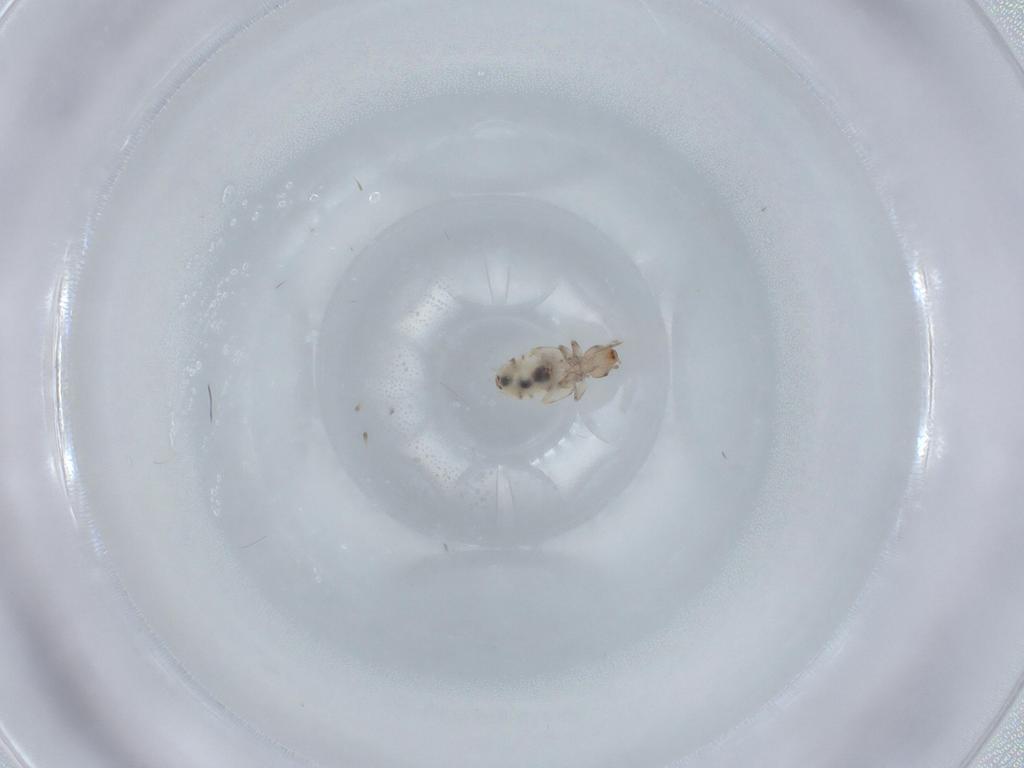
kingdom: Animalia
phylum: Arthropoda
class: Insecta
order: Psocodea
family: Liposcelididae
